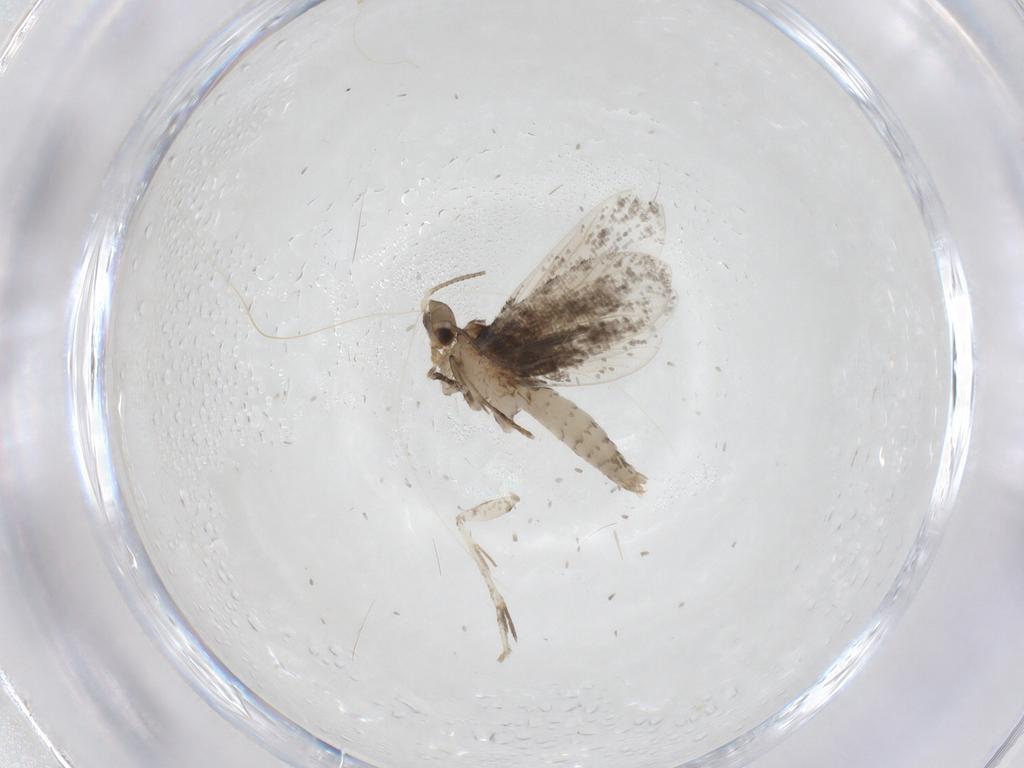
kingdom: Animalia
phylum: Arthropoda
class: Insecta
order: Lepidoptera
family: Crambidae
